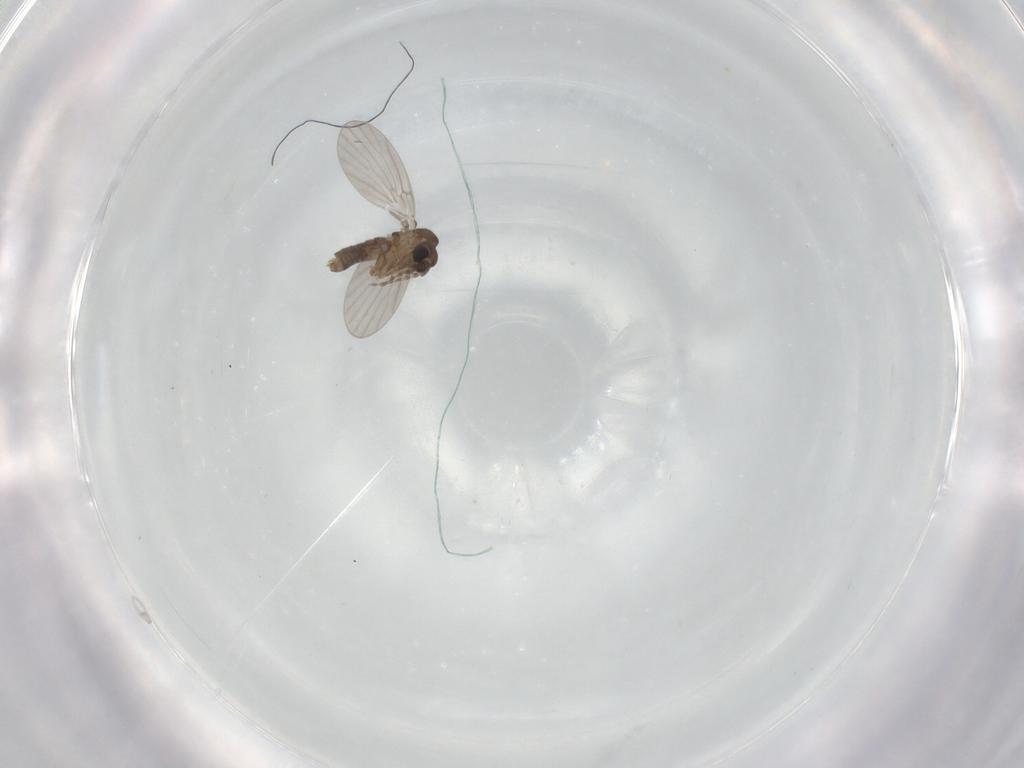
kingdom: Animalia
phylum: Arthropoda
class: Insecta
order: Diptera
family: Cecidomyiidae
